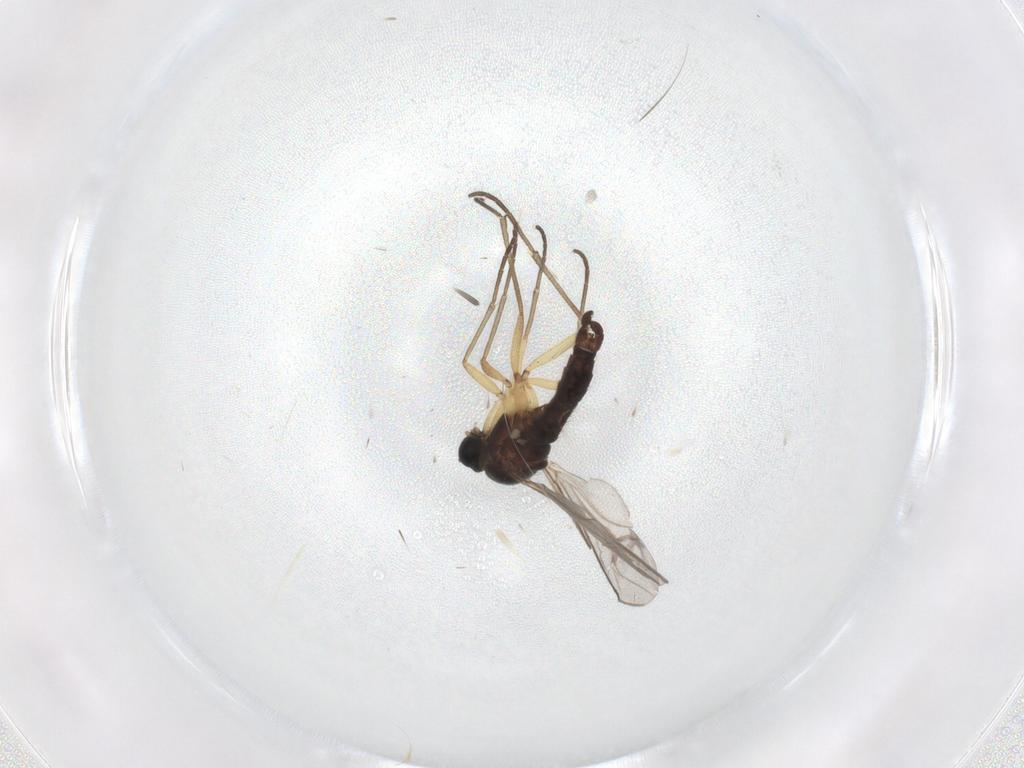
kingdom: Animalia
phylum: Arthropoda
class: Insecta
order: Diptera
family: Sciaridae
